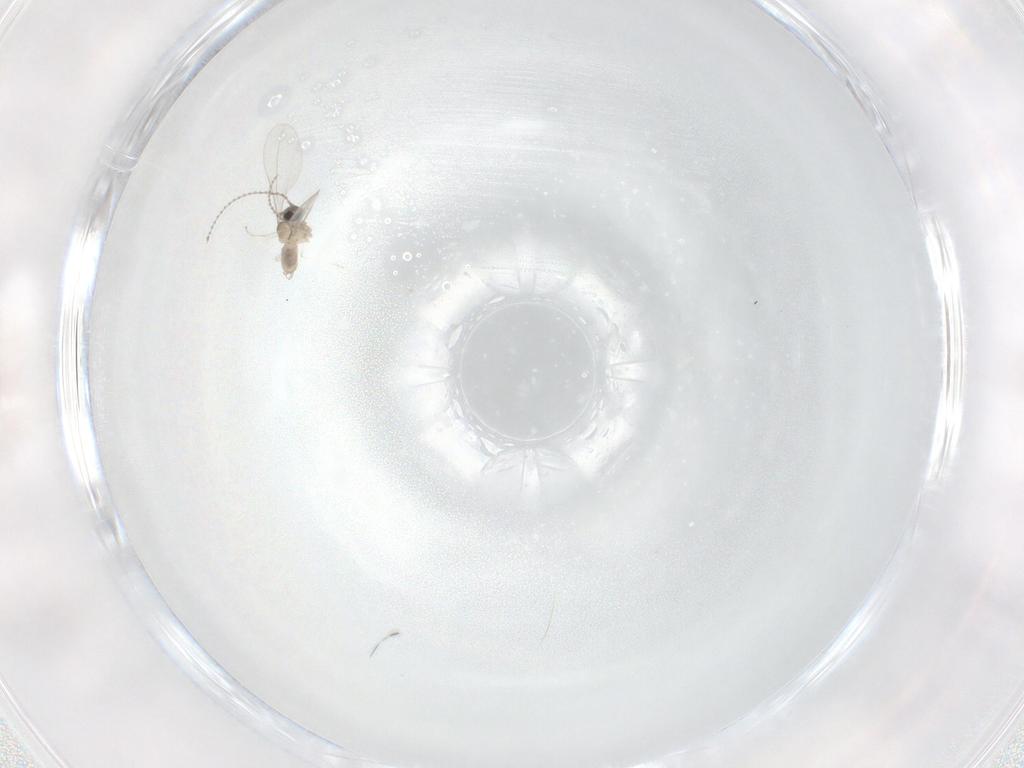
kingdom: Animalia
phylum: Arthropoda
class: Insecta
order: Diptera
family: Cecidomyiidae
